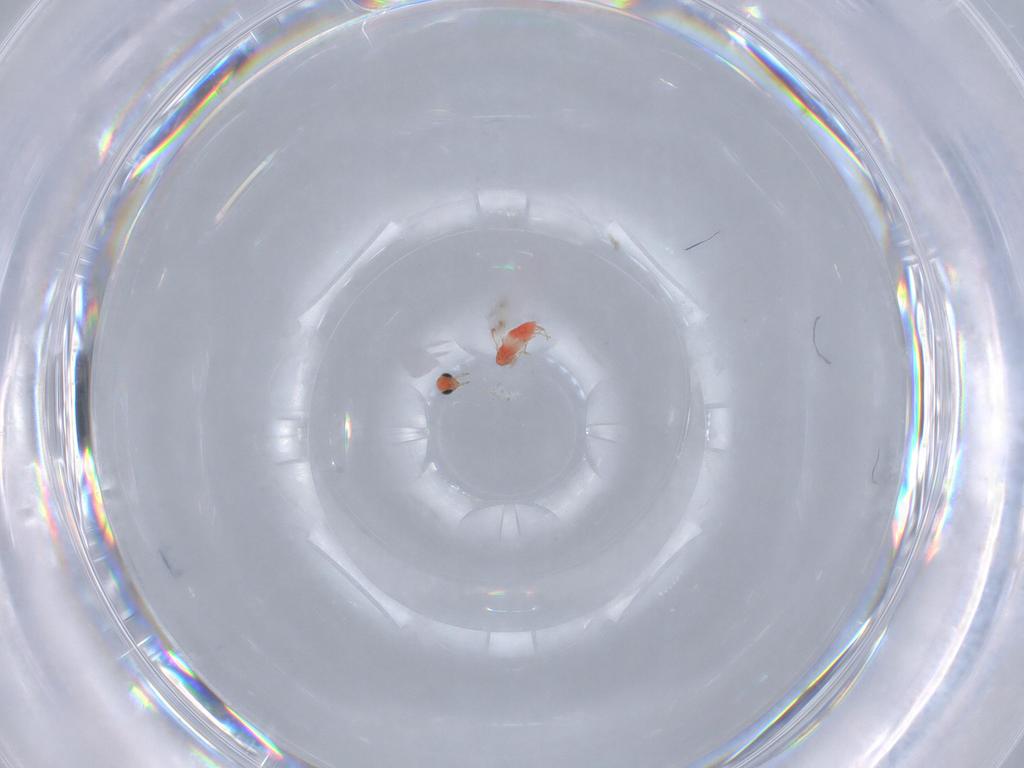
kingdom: Animalia
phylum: Arthropoda
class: Insecta
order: Hymenoptera
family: Trichogrammatidae
